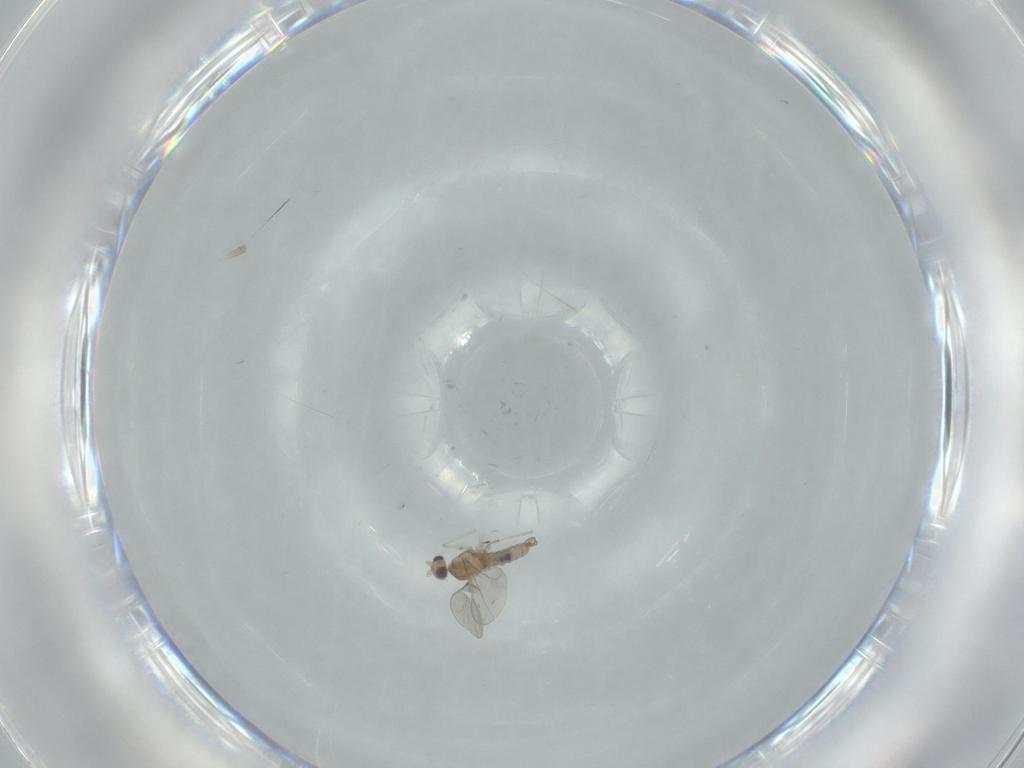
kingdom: Animalia
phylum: Arthropoda
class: Insecta
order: Diptera
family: Cecidomyiidae
